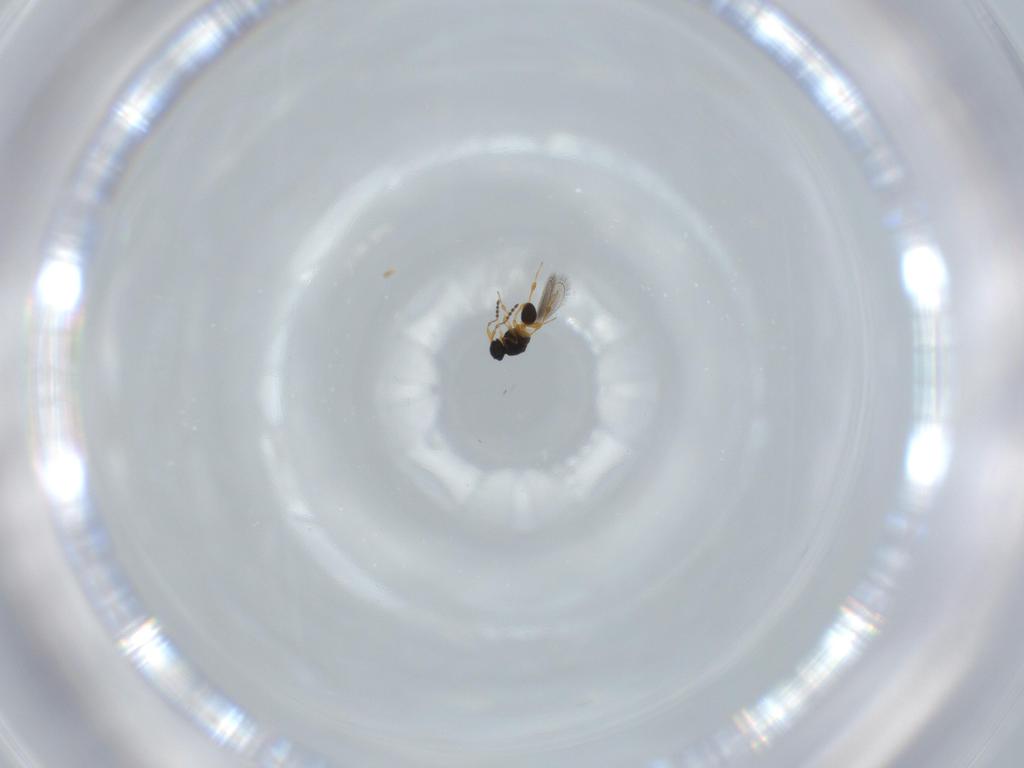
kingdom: Animalia
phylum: Arthropoda
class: Insecta
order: Hymenoptera
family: Platygastridae
